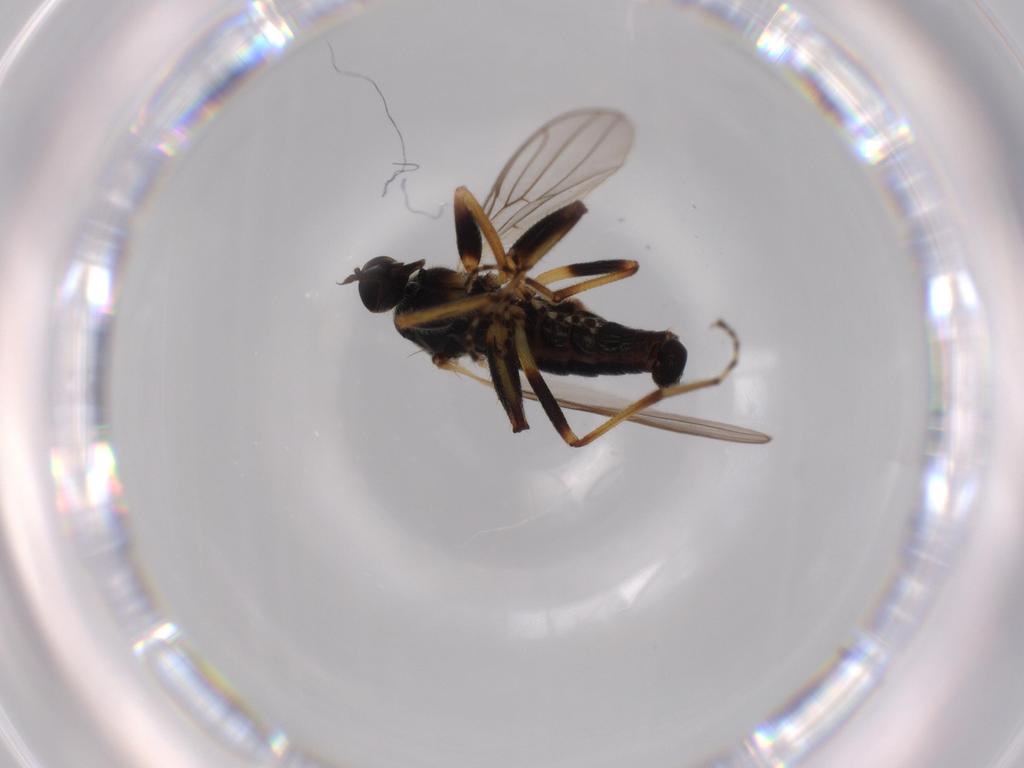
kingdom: Animalia
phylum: Arthropoda
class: Insecta
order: Diptera
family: Hybotidae
